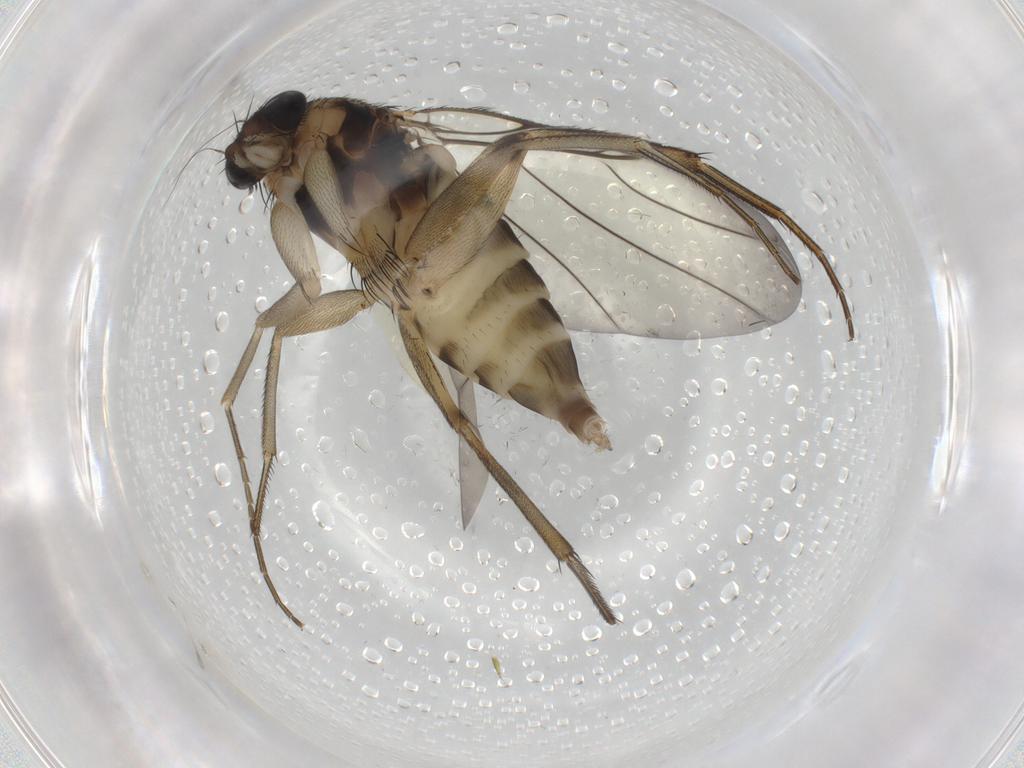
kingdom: Animalia
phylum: Arthropoda
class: Insecta
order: Diptera
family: Phoridae
